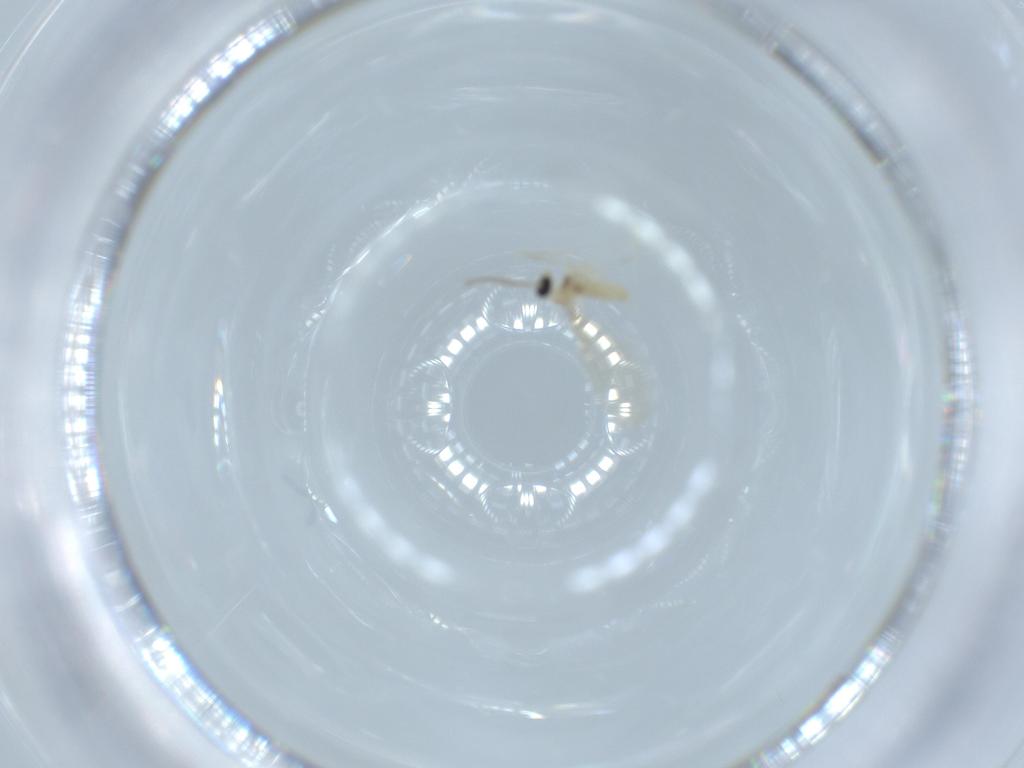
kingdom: Animalia
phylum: Arthropoda
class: Insecta
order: Diptera
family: Cecidomyiidae
